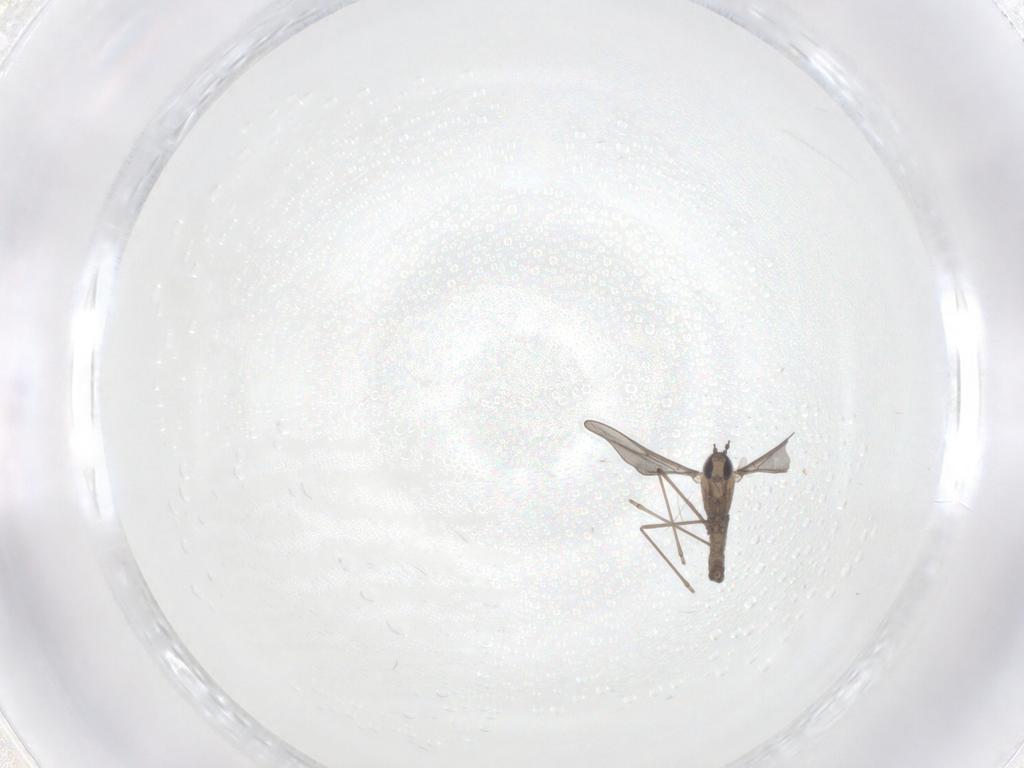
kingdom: Animalia
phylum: Arthropoda
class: Insecta
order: Diptera
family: Cecidomyiidae
